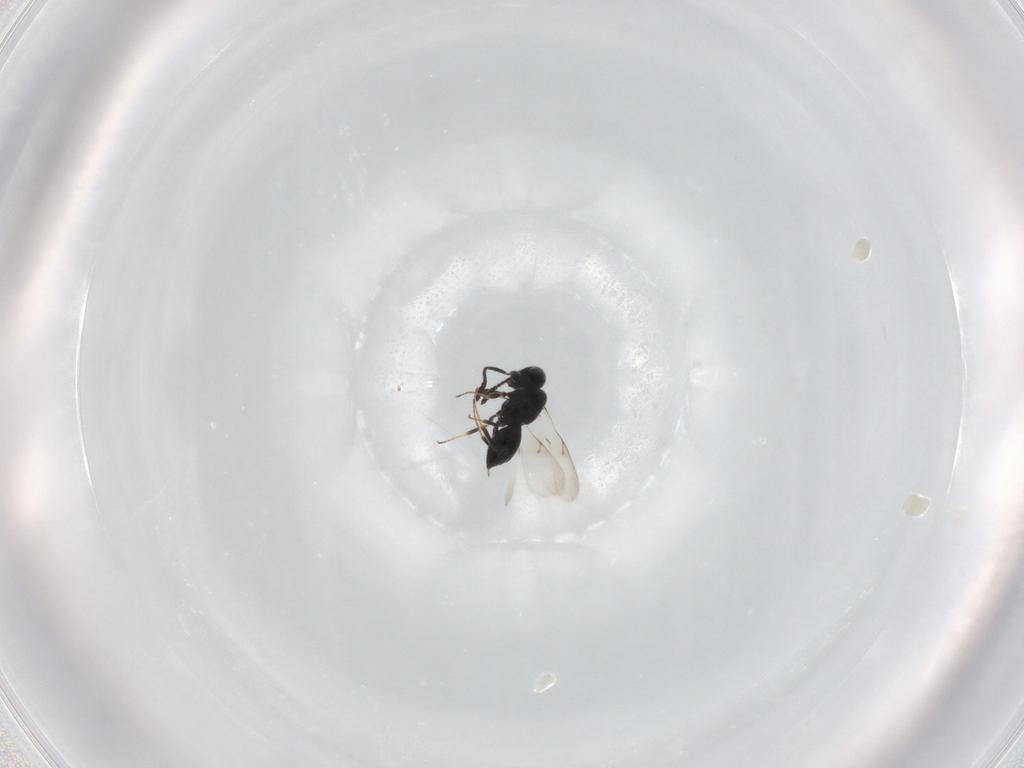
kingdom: Animalia
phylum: Arthropoda
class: Insecta
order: Hymenoptera
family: Scelionidae
